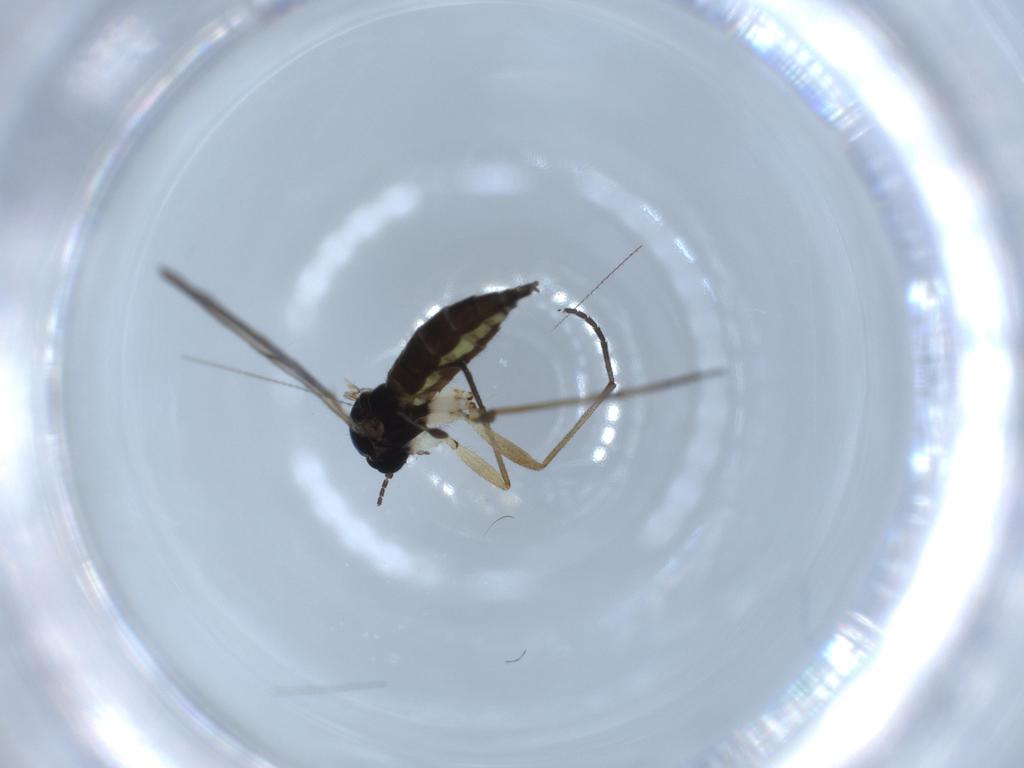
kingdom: Animalia
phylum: Arthropoda
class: Insecta
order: Diptera
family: Sciaridae
